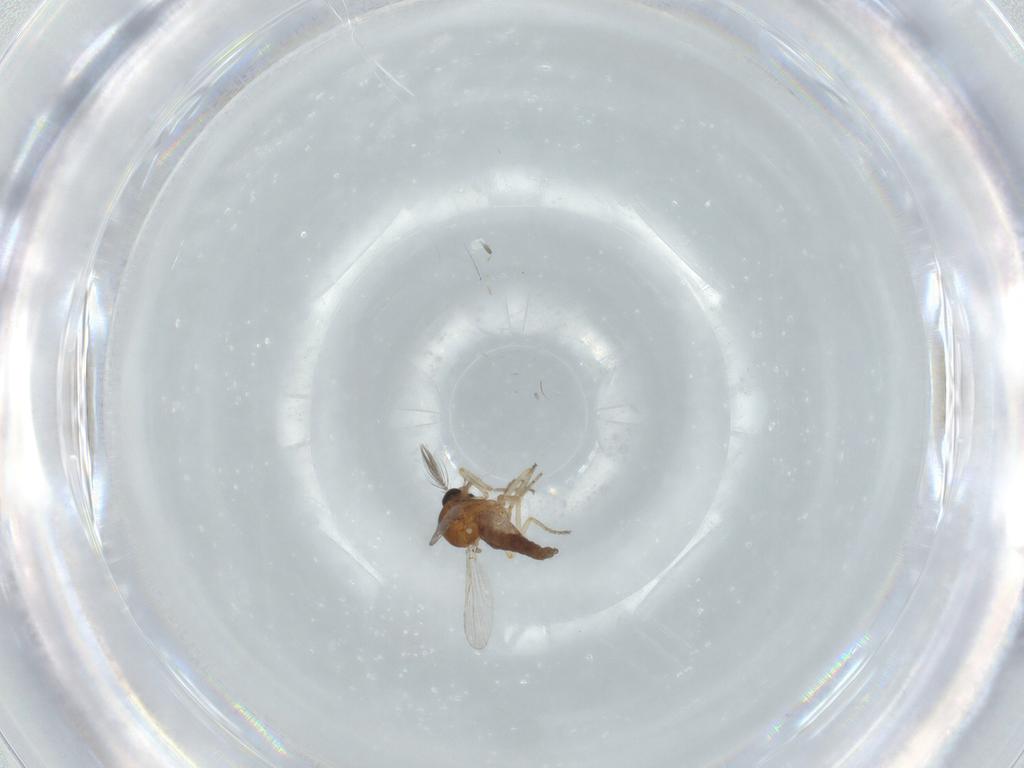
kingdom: Animalia
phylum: Arthropoda
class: Insecta
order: Diptera
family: Ceratopogonidae
